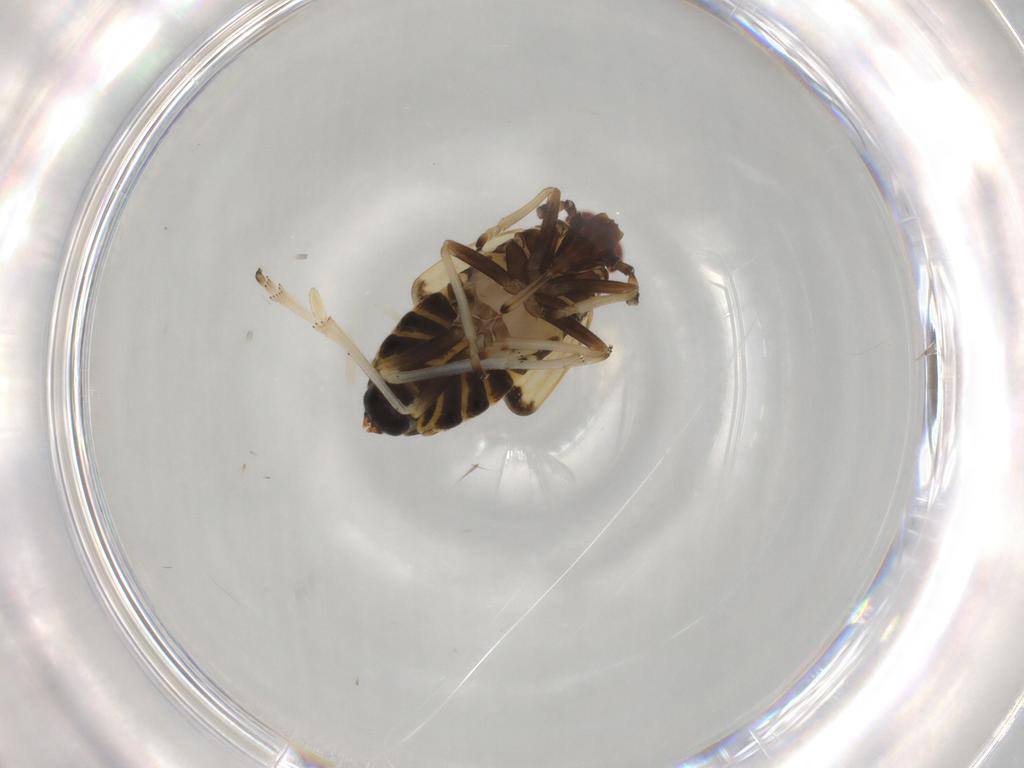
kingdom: Animalia
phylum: Arthropoda
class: Insecta
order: Hemiptera
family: Delphacidae
